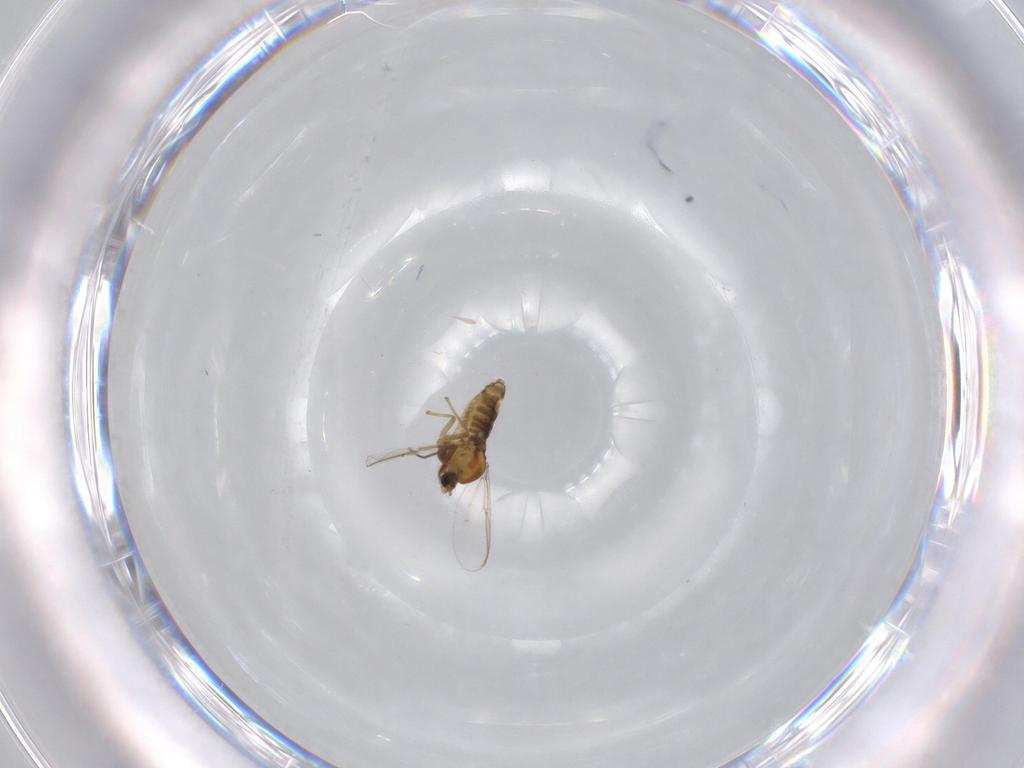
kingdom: Animalia
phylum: Arthropoda
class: Insecta
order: Diptera
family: Chironomidae
